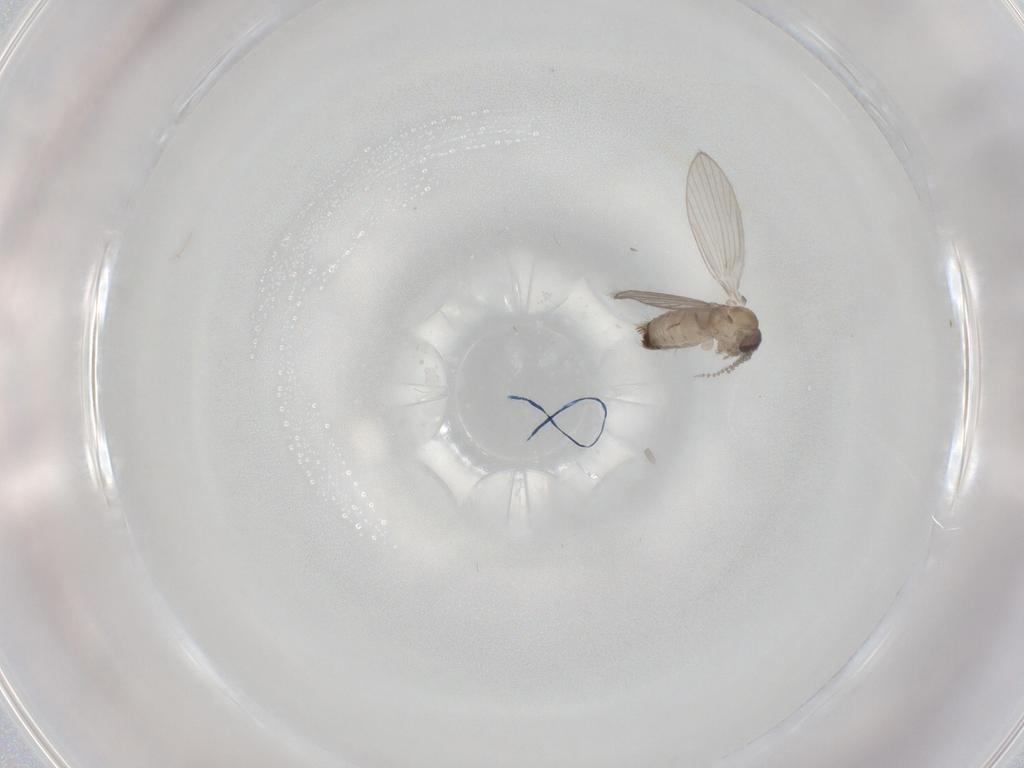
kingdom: Animalia
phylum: Arthropoda
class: Insecta
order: Diptera
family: Psychodidae
